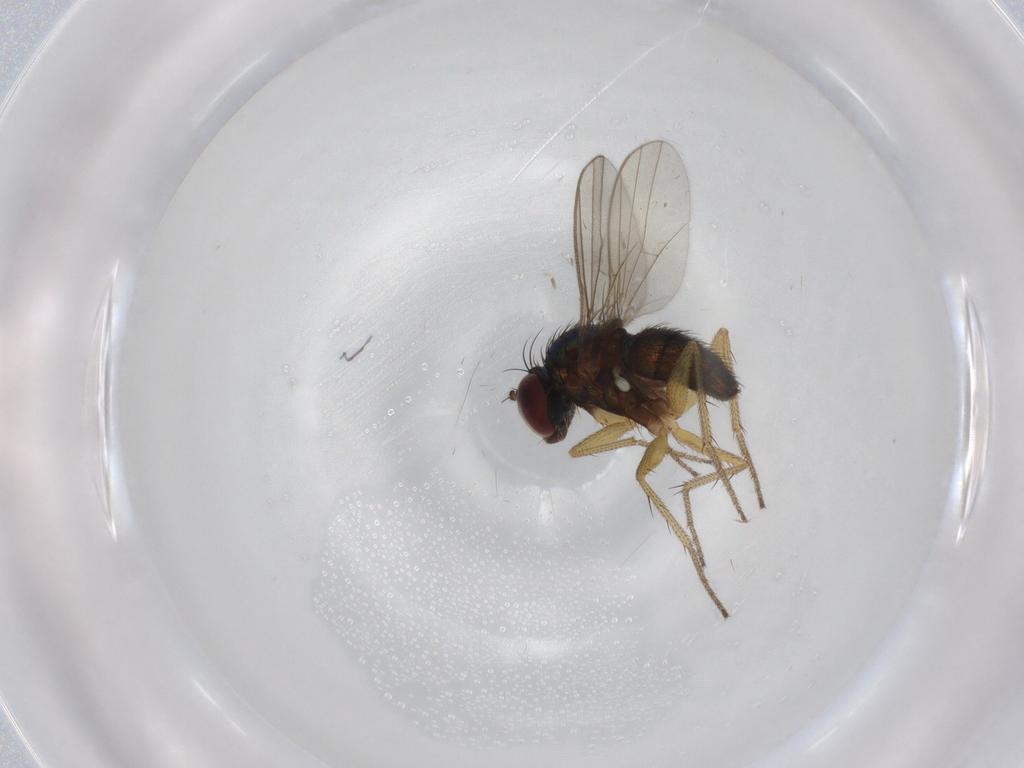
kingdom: Animalia
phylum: Arthropoda
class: Insecta
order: Diptera
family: Dolichopodidae
